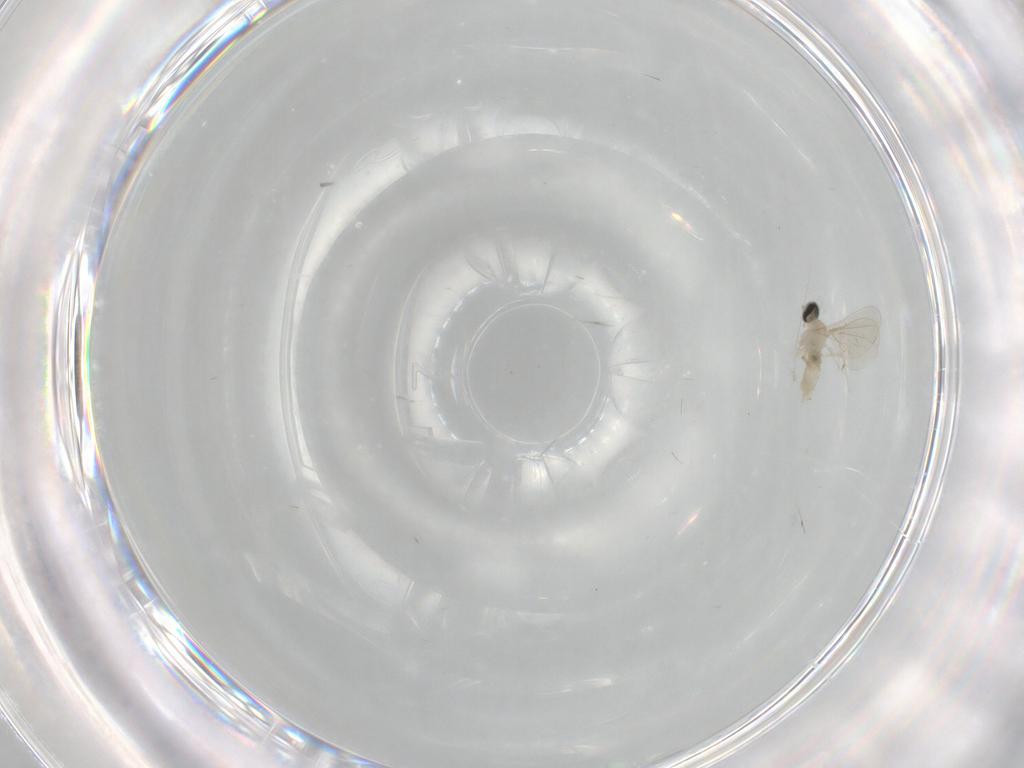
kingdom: Animalia
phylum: Arthropoda
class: Insecta
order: Diptera
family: Cecidomyiidae
